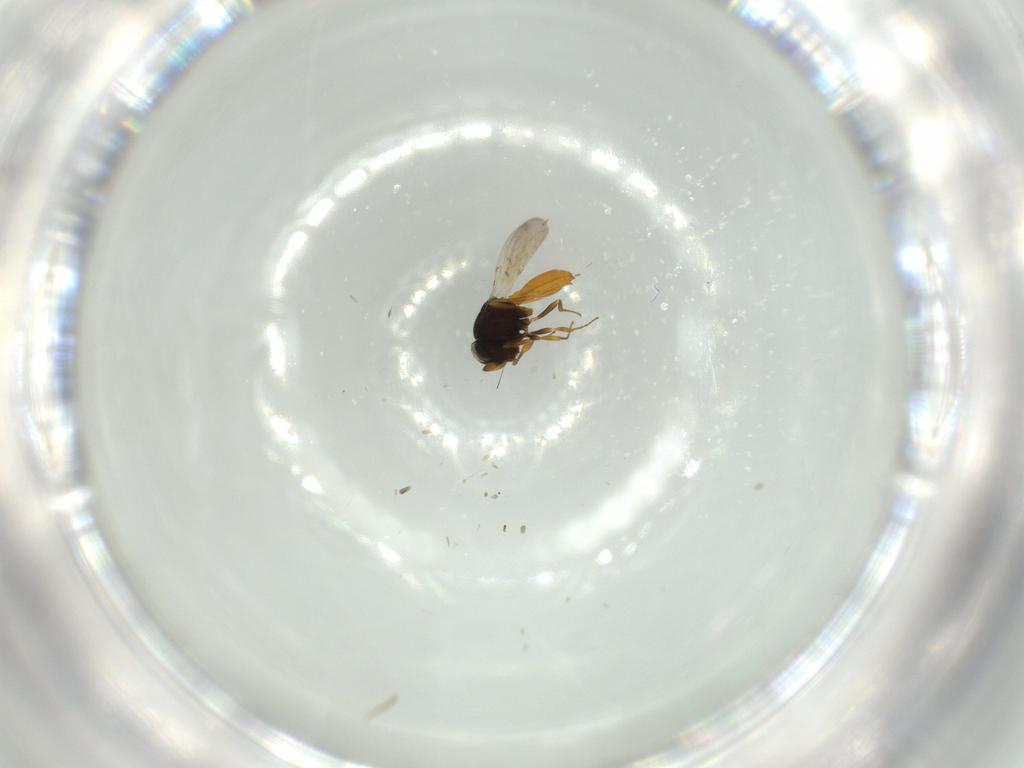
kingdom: Animalia
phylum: Arthropoda
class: Insecta
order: Hymenoptera
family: Scelionidae
